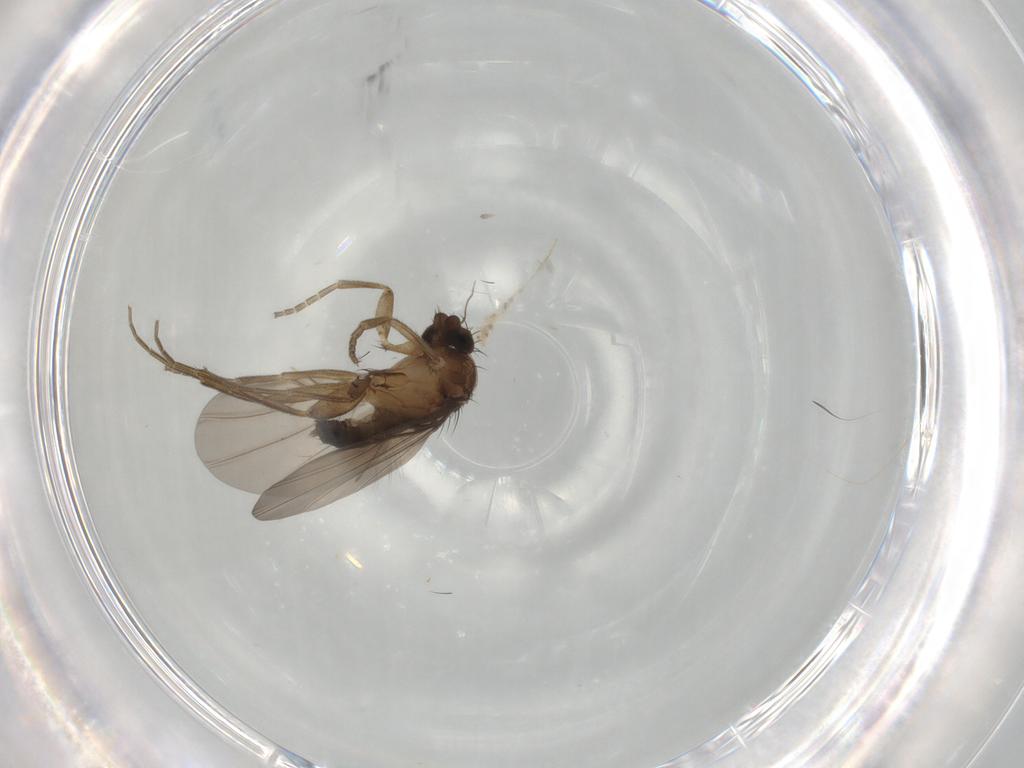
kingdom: Animalia
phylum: Arthropoda
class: Insecta
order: Diptera
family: Phoridae
